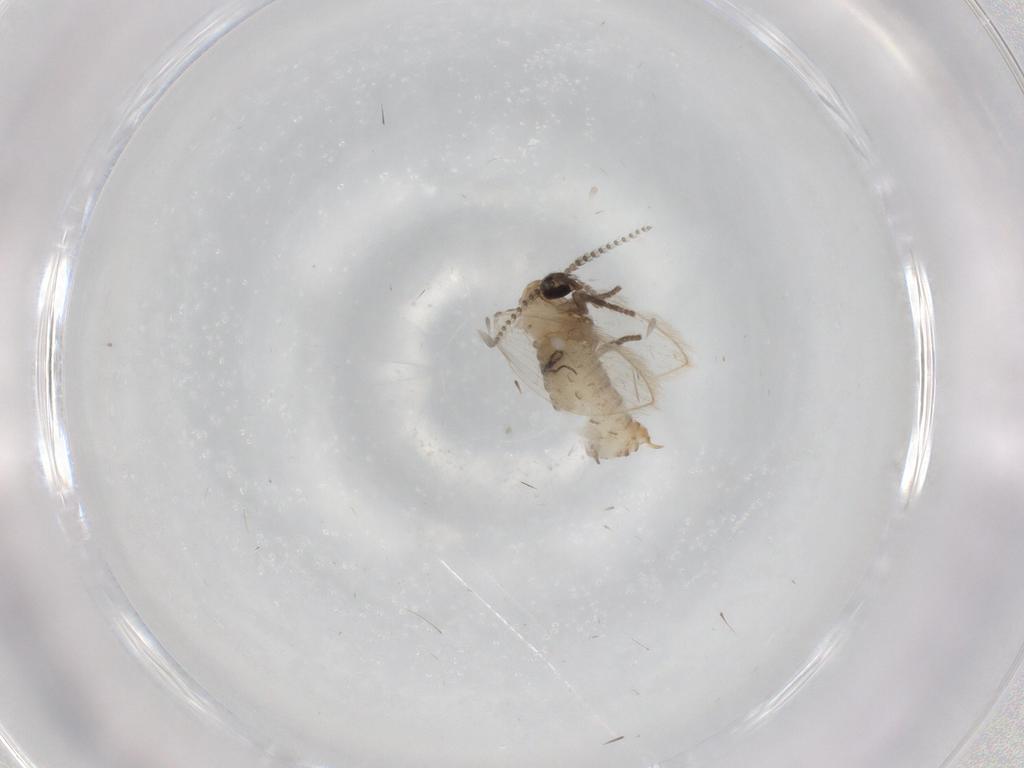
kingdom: Animalia
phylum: Arthropoda
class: Insecta
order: Diptera
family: Psychodidae
